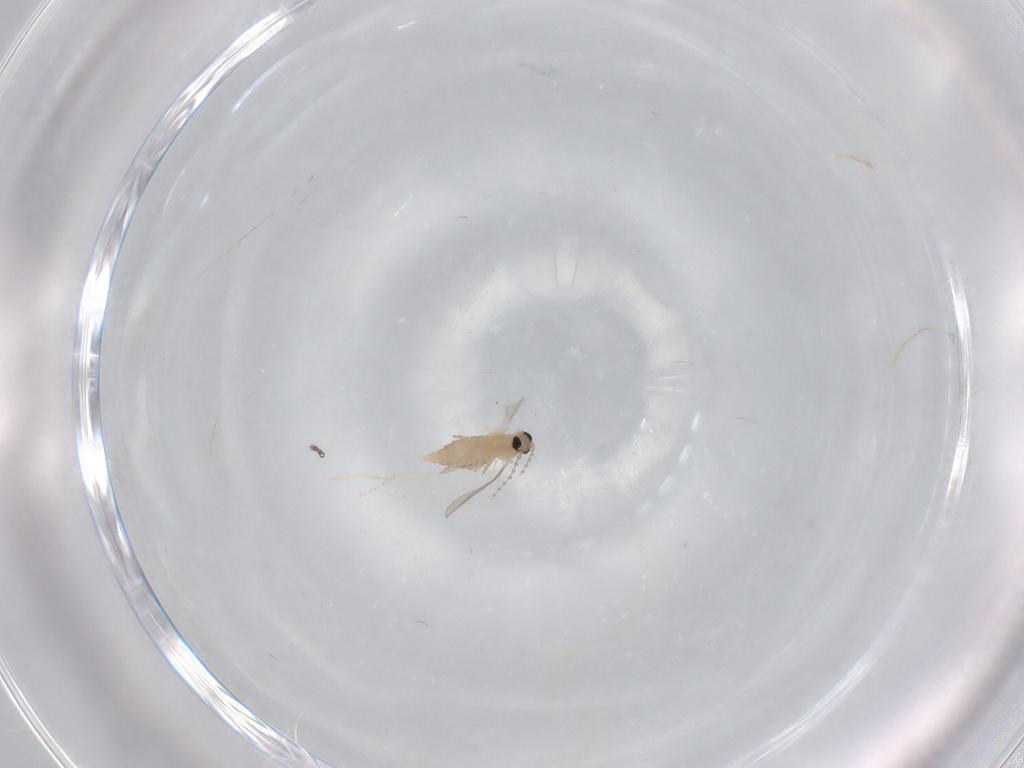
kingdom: Animalia
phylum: Arthropoda
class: Insecta
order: Diptera
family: Cecidomyiidae
